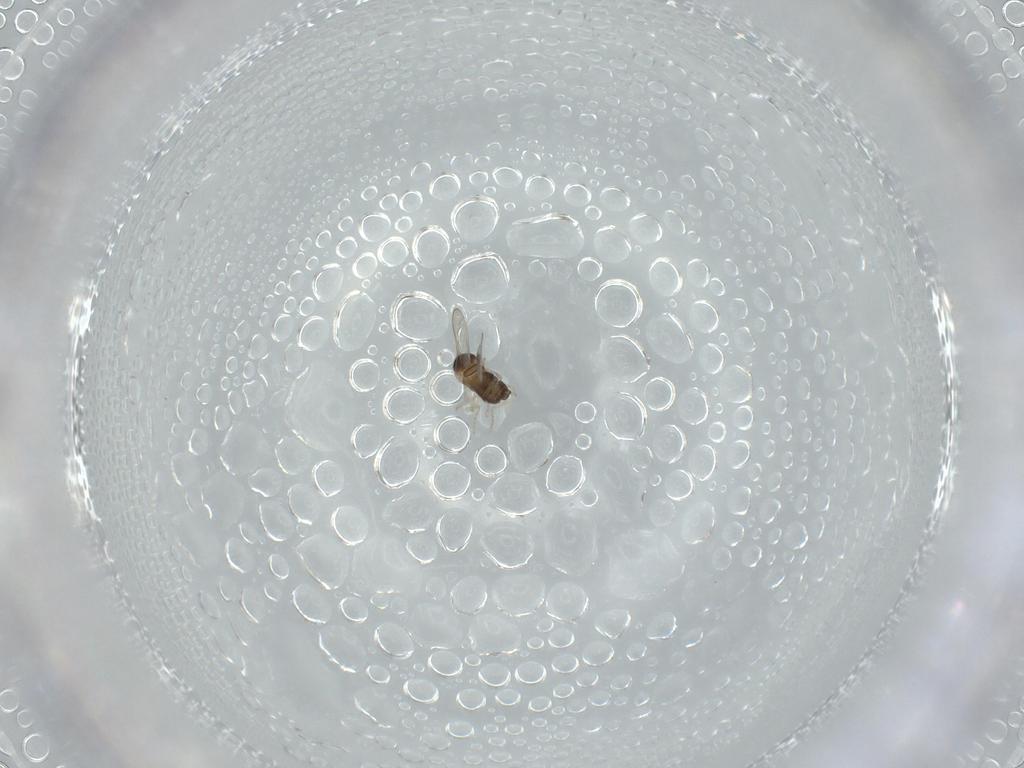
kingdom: Animalia
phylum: Arthropoda
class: Insecta
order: Diptera
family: Cecidomyiidae
